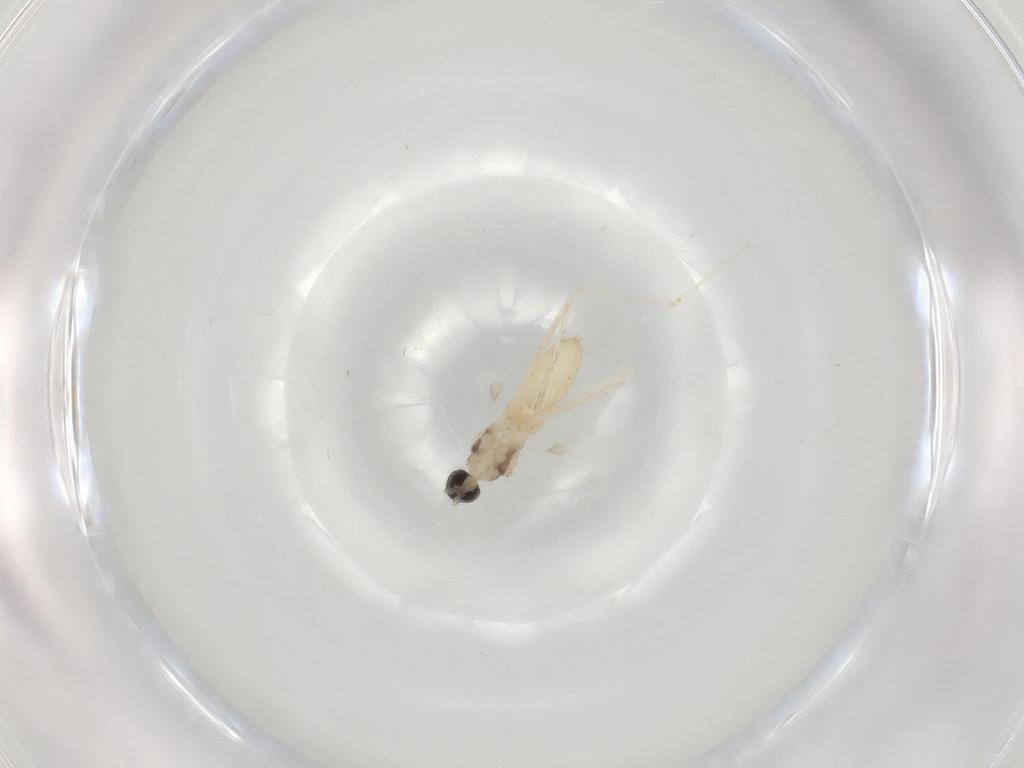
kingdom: Animalia
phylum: Arthropoda
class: Insecta
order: Diptera
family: Cecidomyiidae
